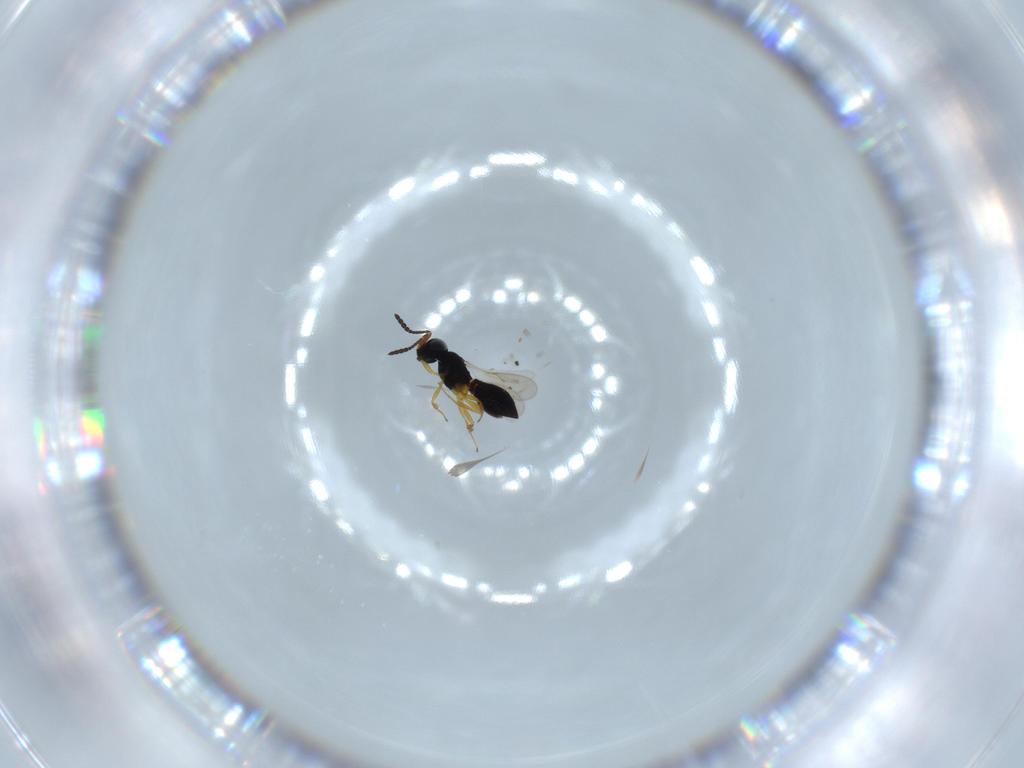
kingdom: Animalia
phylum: Arthropoda
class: Insecta
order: Hymenoptera
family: Scelionidae
